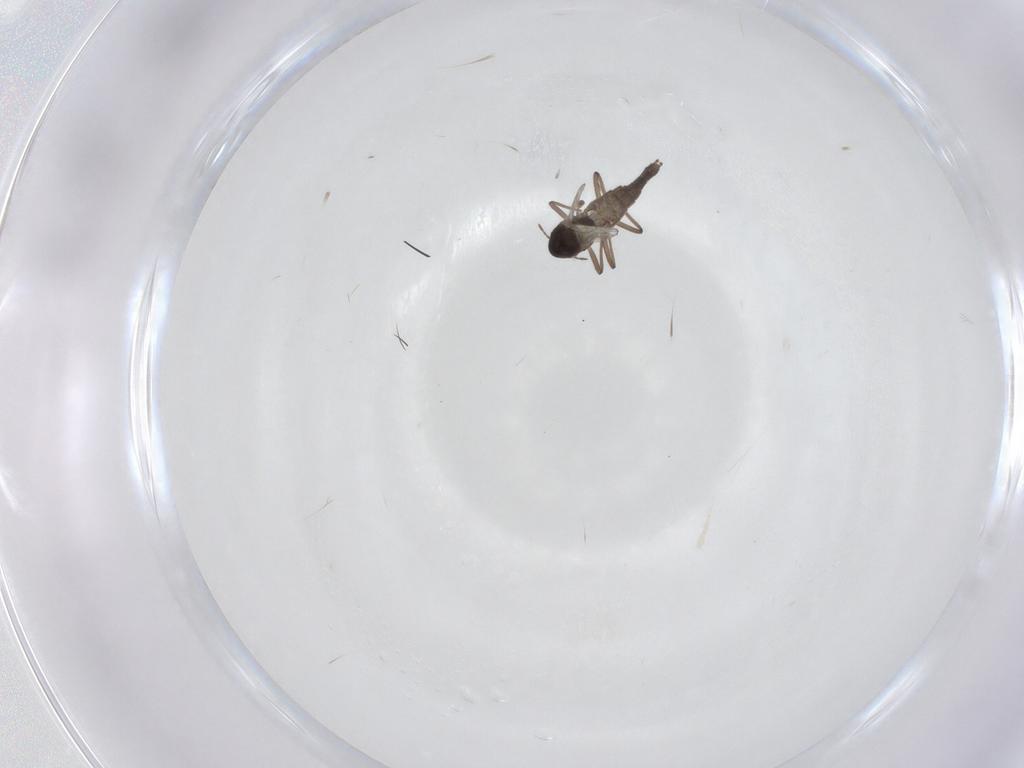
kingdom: Animalia
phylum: Arthropoda
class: Insecta
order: Diptera
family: Chironomidae
